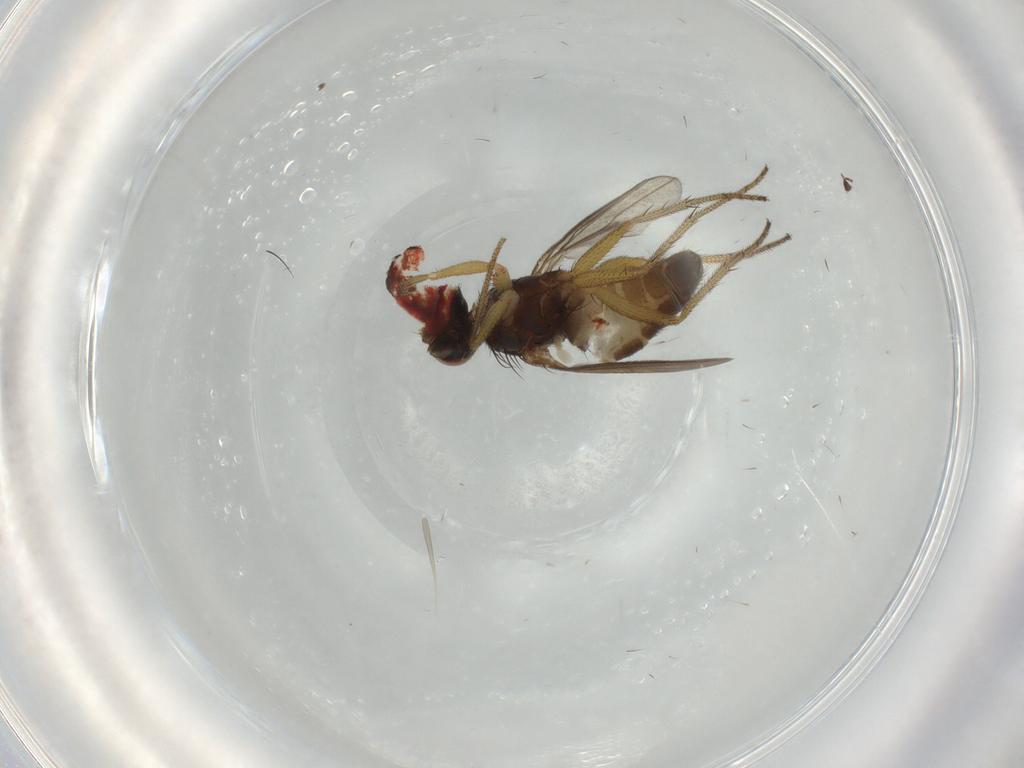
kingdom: Animalia
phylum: Arthropoda
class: Insecta
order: Diptera
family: Dolichopodidae
